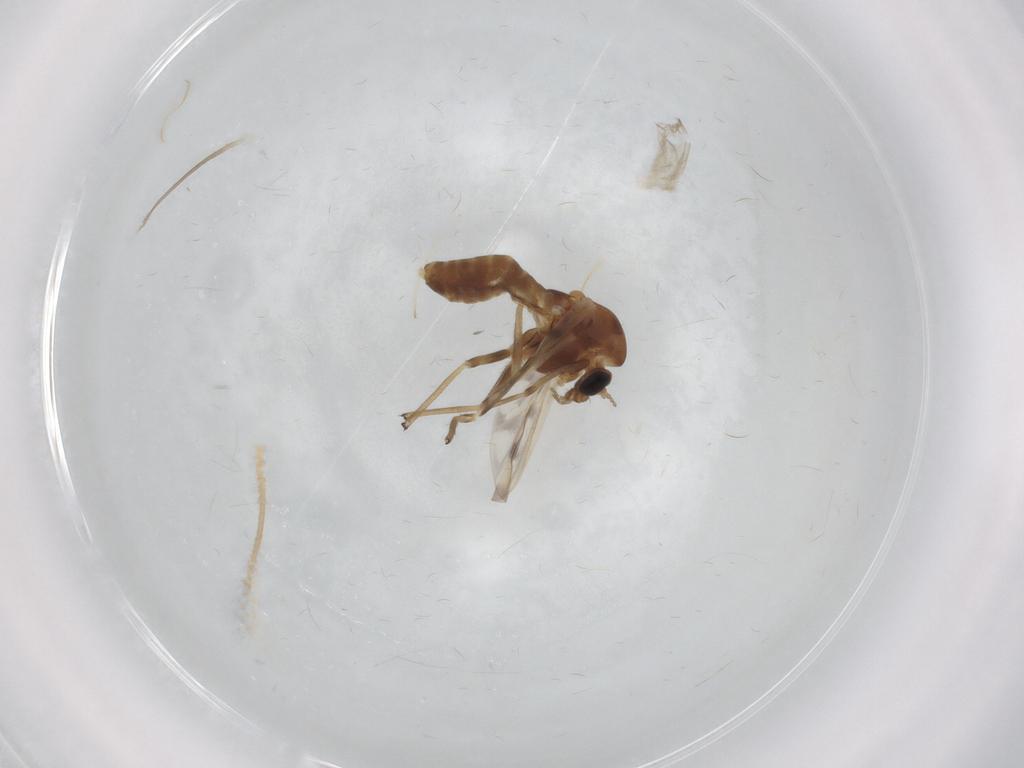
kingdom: Animalia
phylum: Arthropoda
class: Insecta
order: Diptera
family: Chironomidae
